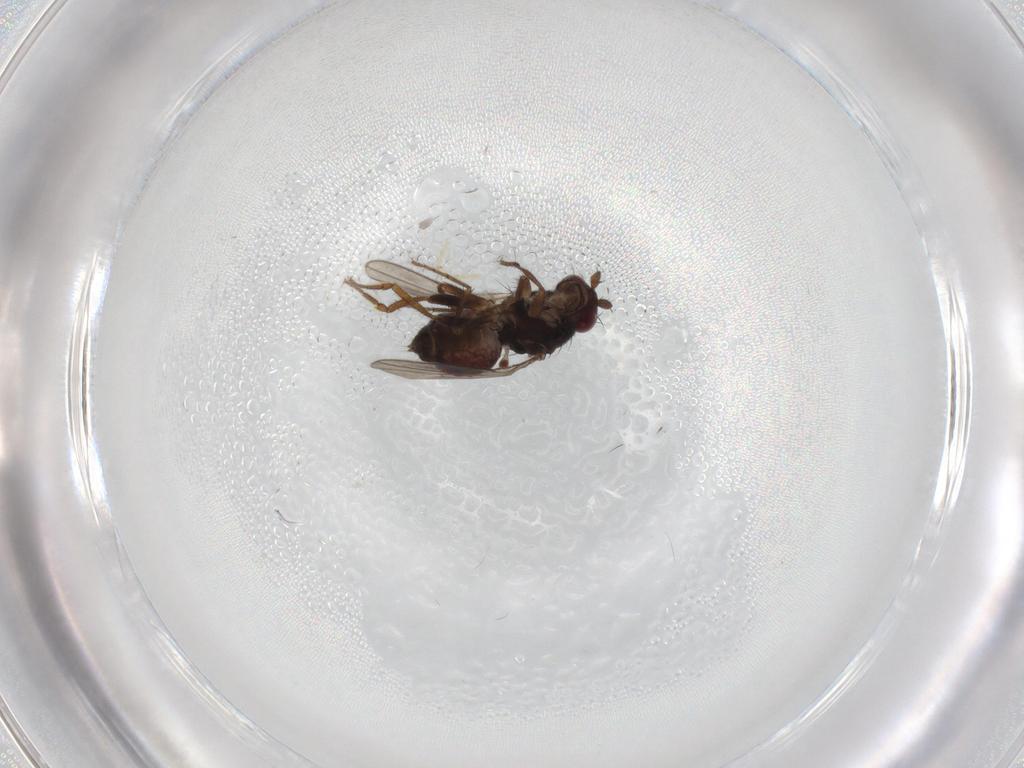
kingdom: Animalia
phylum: Arthropoda
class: Insecta
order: Diptera
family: Sphaeroceridae
